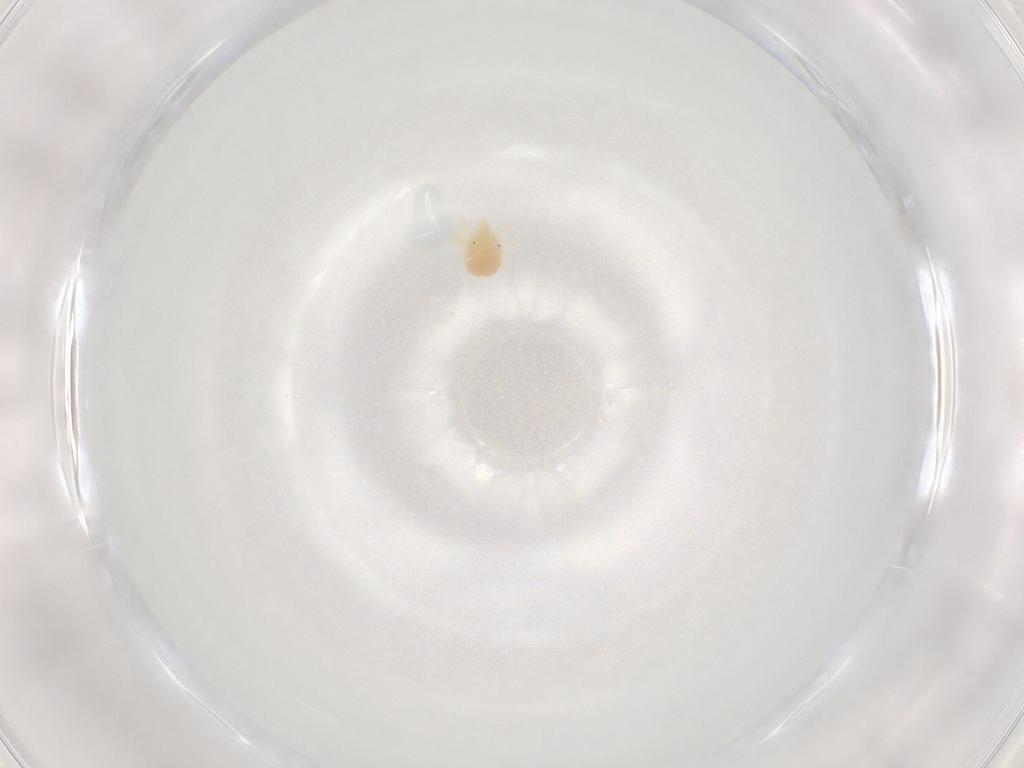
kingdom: Animalia
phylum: Arthropoda
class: Arachnida
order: Trombidiformes
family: Anystidae
